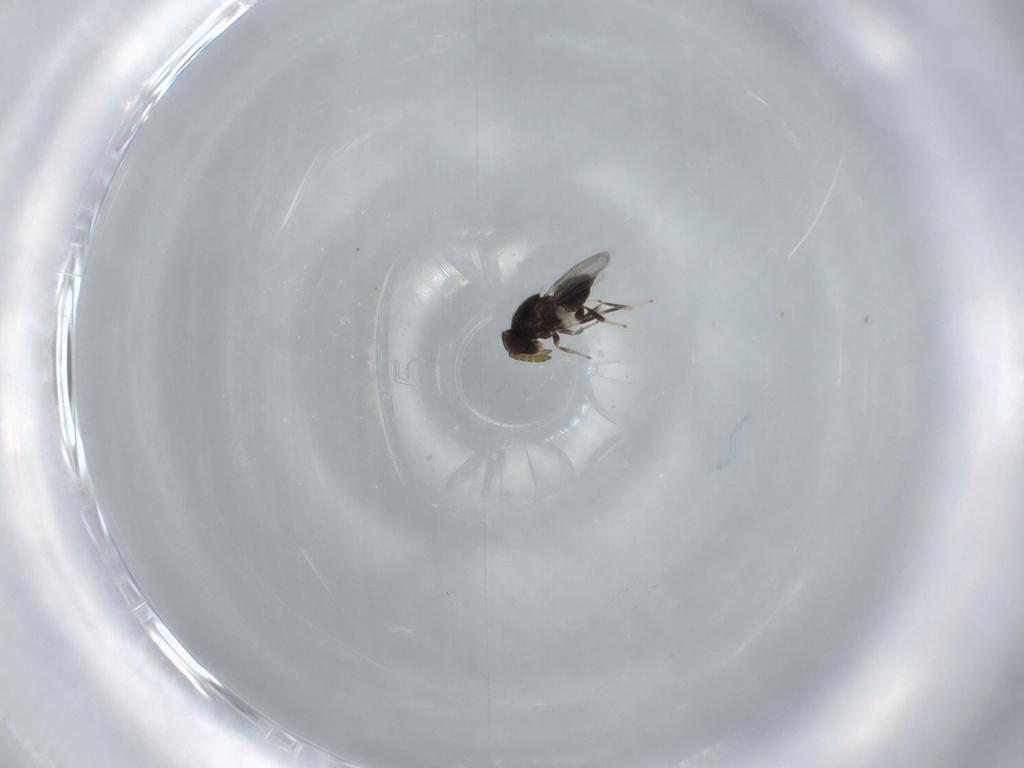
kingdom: Animalia
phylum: Arthropoda
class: Insecta
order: Hymenoptera
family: Aphelinidae
